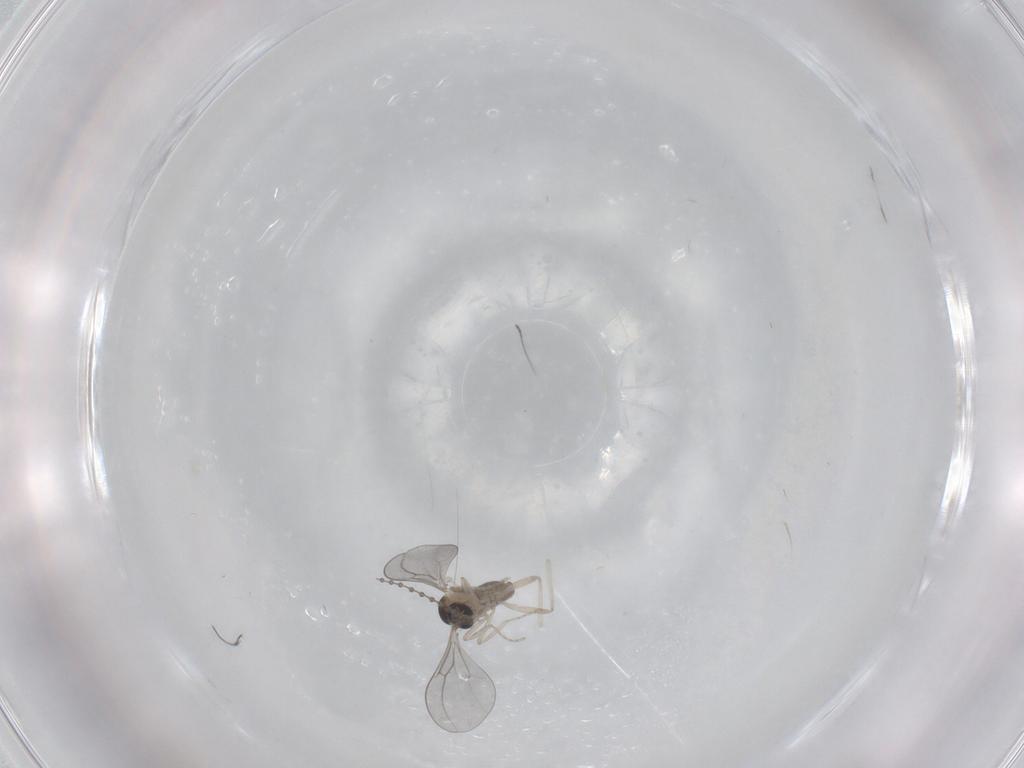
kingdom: Animalia
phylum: Arthropoda
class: Insecta
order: Diptera
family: Cecidomyiidae
